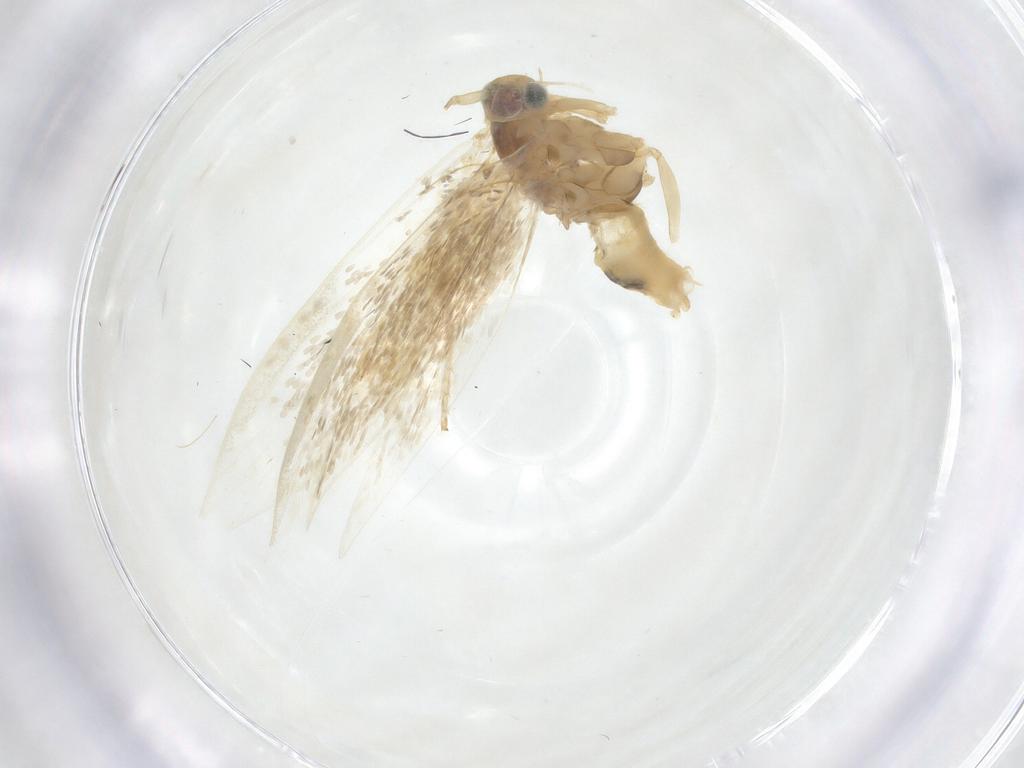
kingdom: Animalia
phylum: Arthropoda
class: Insecta
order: Lepidoptera
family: Argyresthiidae
